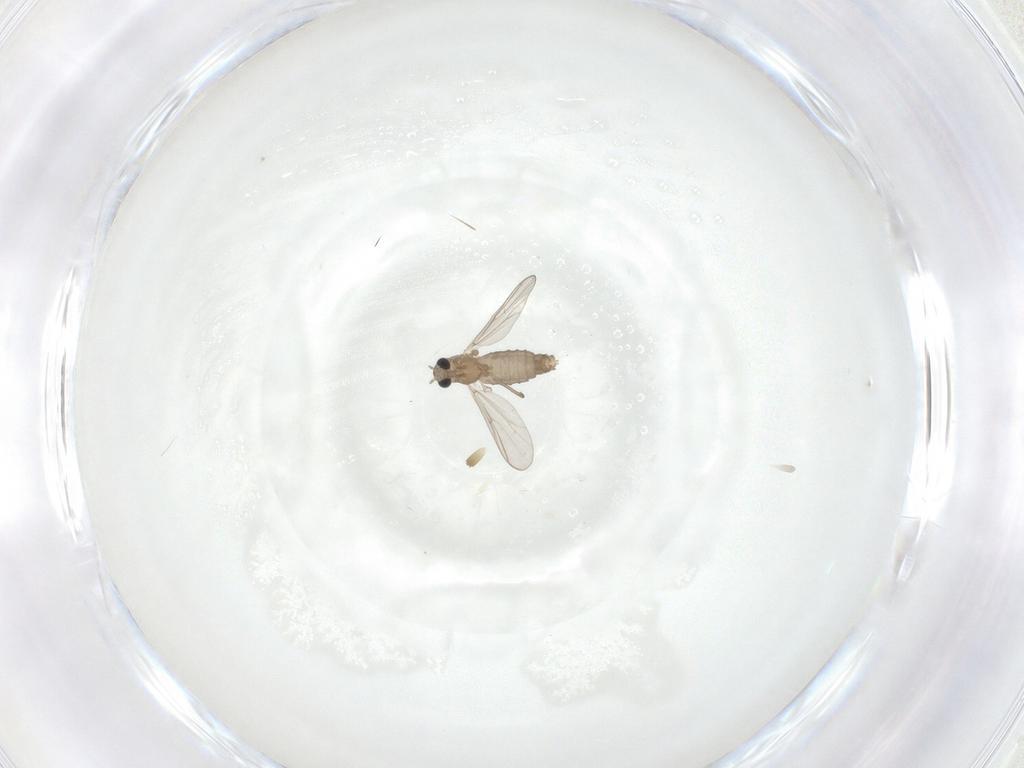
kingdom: Animalia
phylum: Arthropoda
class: Insecta
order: Diptera
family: Chironomidae
